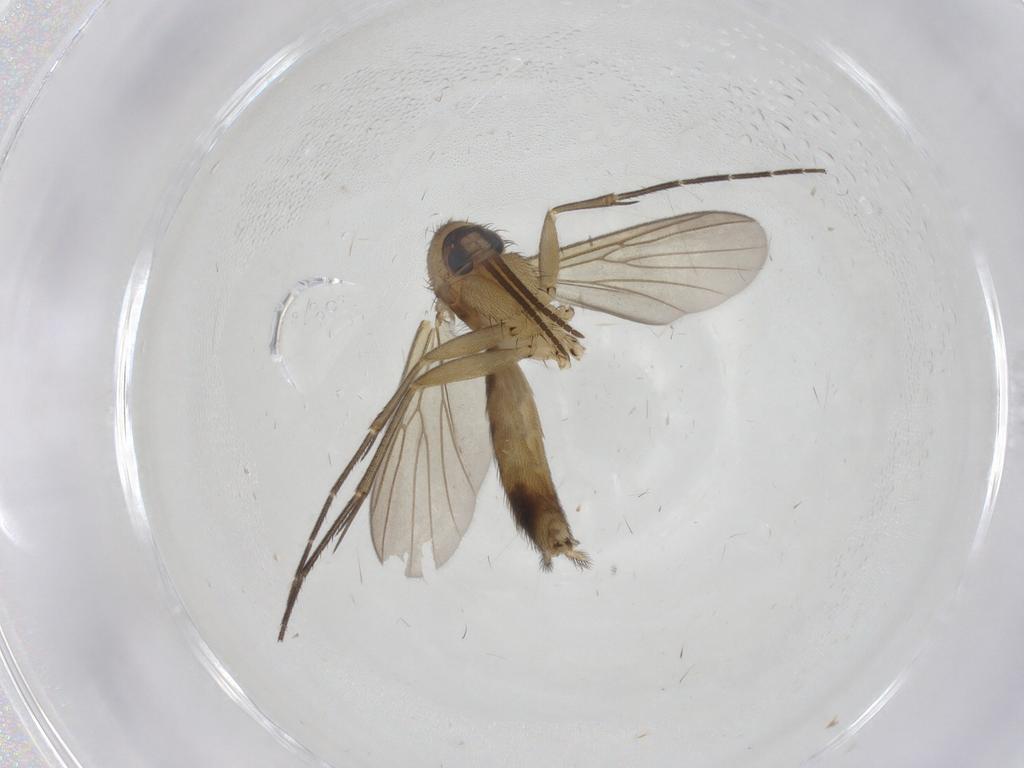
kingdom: Animalia
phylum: Arthropoda
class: Insecta
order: Diptera
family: Mycetophilidae
